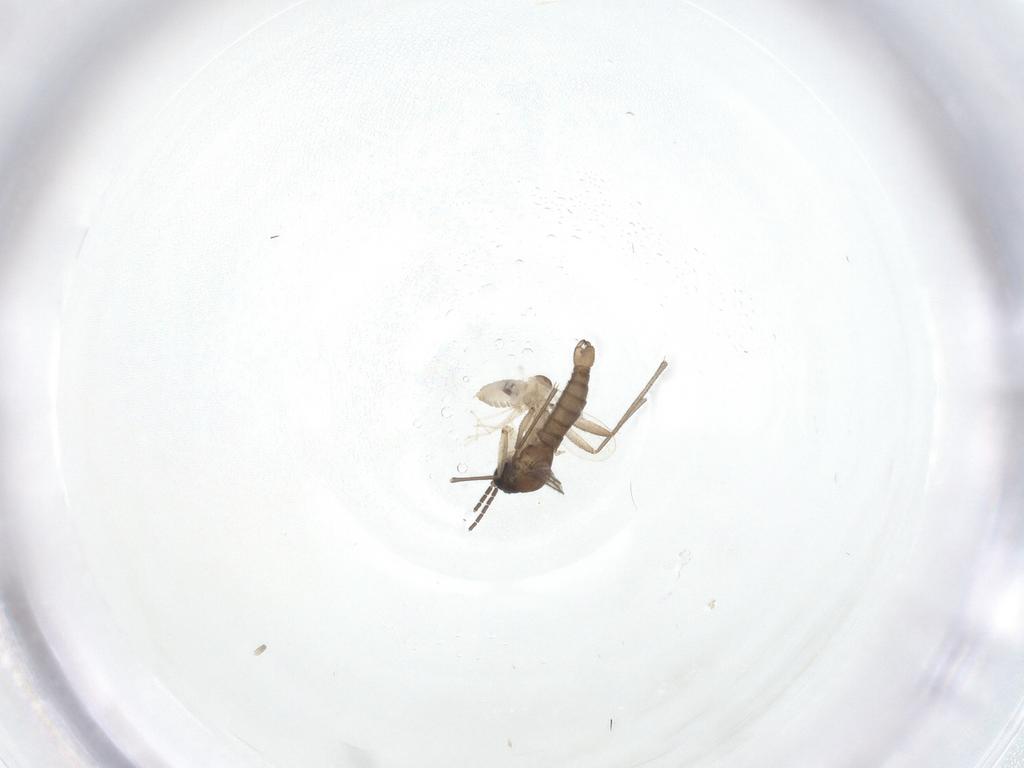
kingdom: Animalia
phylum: Arthropoda
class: Insecta
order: Diptera
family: Cecidomyiidae
